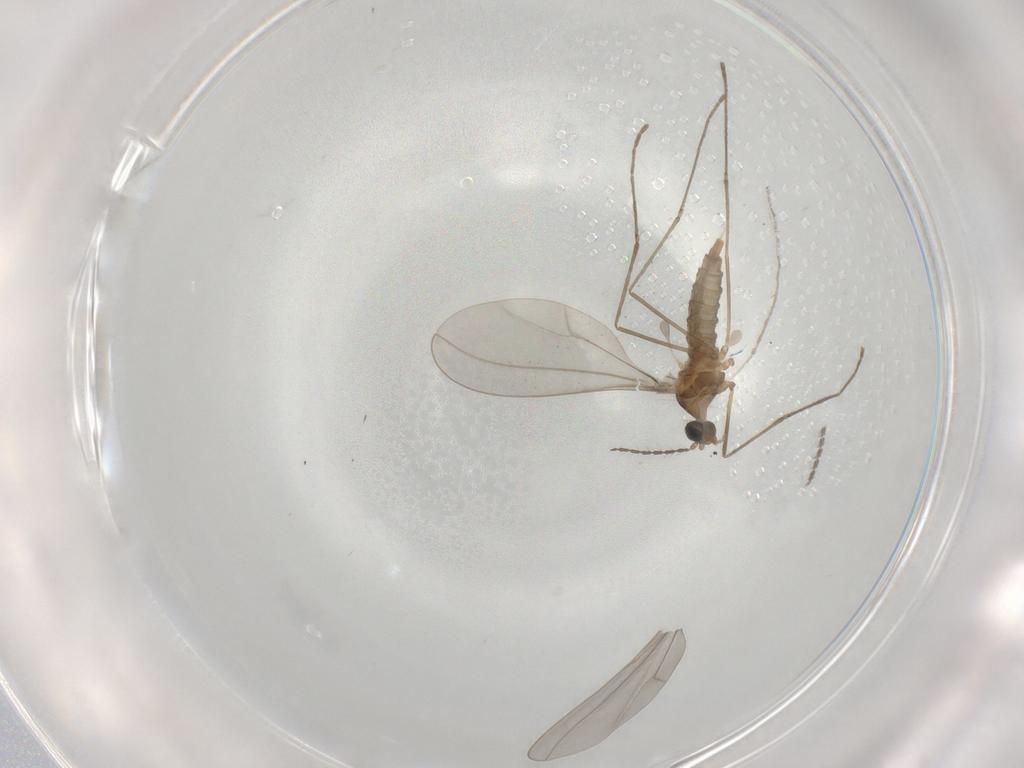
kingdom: Animalia
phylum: Arthropoda
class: Insecta
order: Diptera
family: Cecidomyiidae
